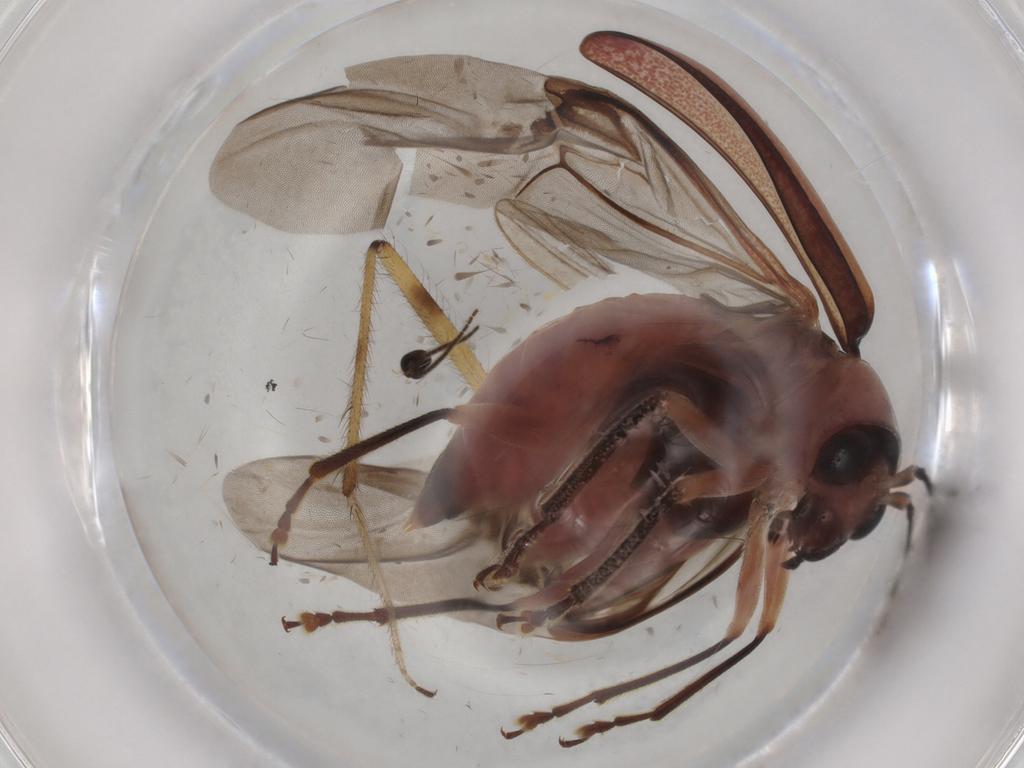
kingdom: Animalia
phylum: Arthropoda
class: Insecta
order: Coleoptera
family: Chrysomelidae
